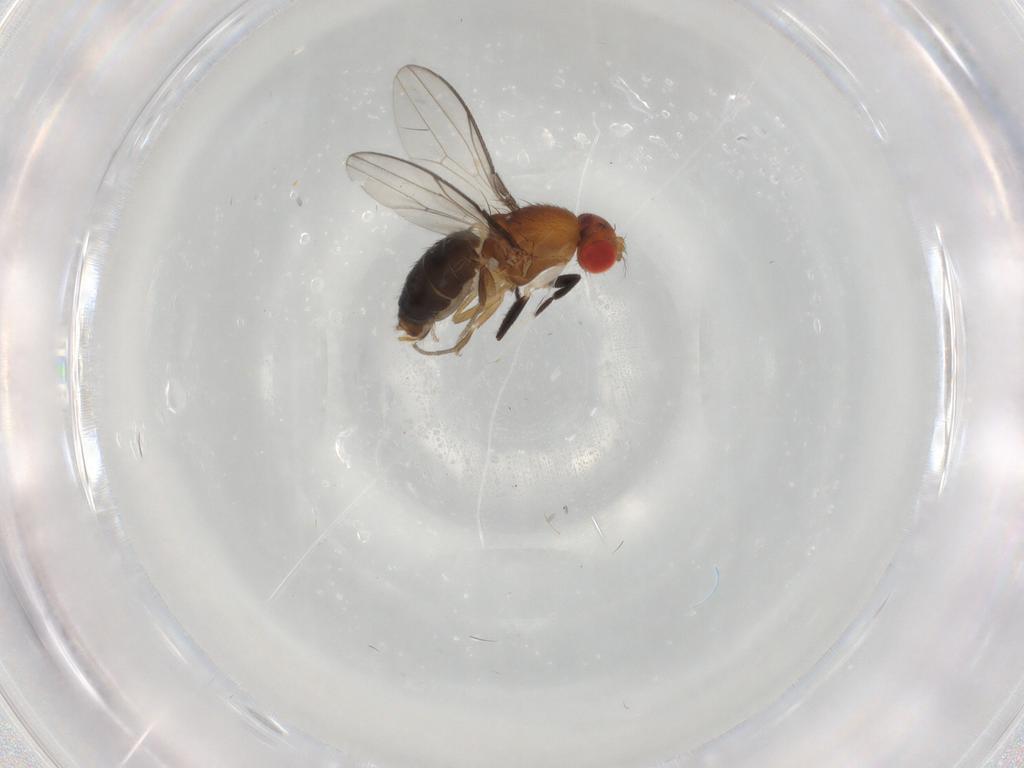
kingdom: Animalia
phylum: Arthropoda
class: Insecta
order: Diptera
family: Drosophilidae
